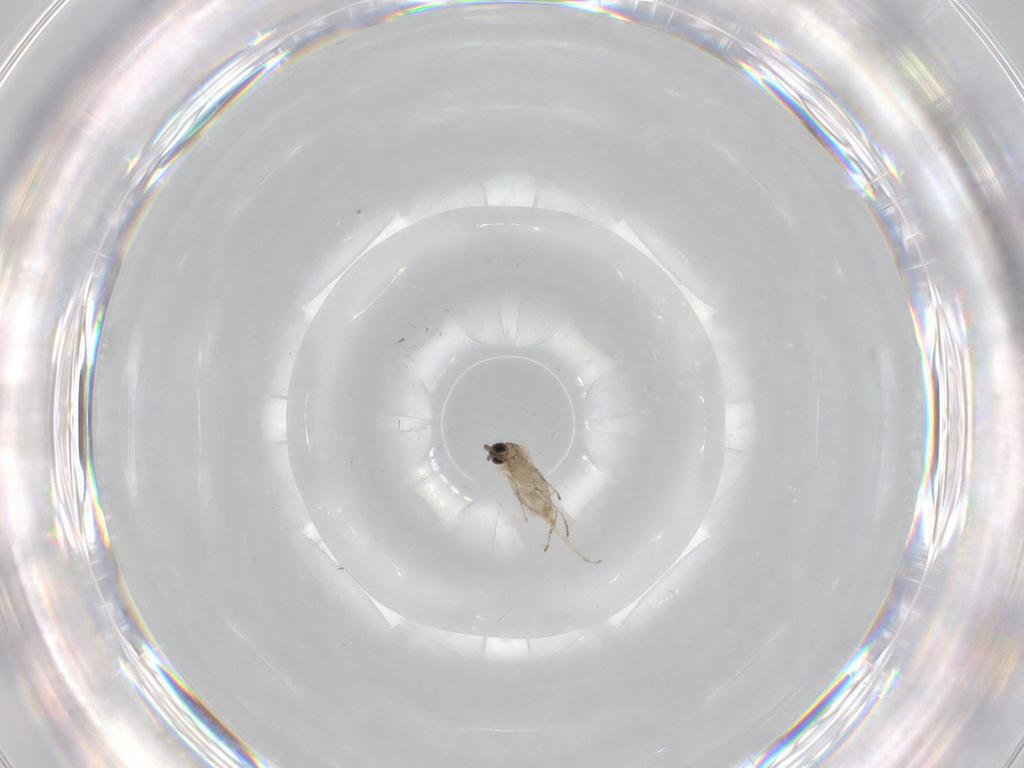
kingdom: Animalia
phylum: Arthropoda
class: Insecta
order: Diptera
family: Cecidomyiidae
